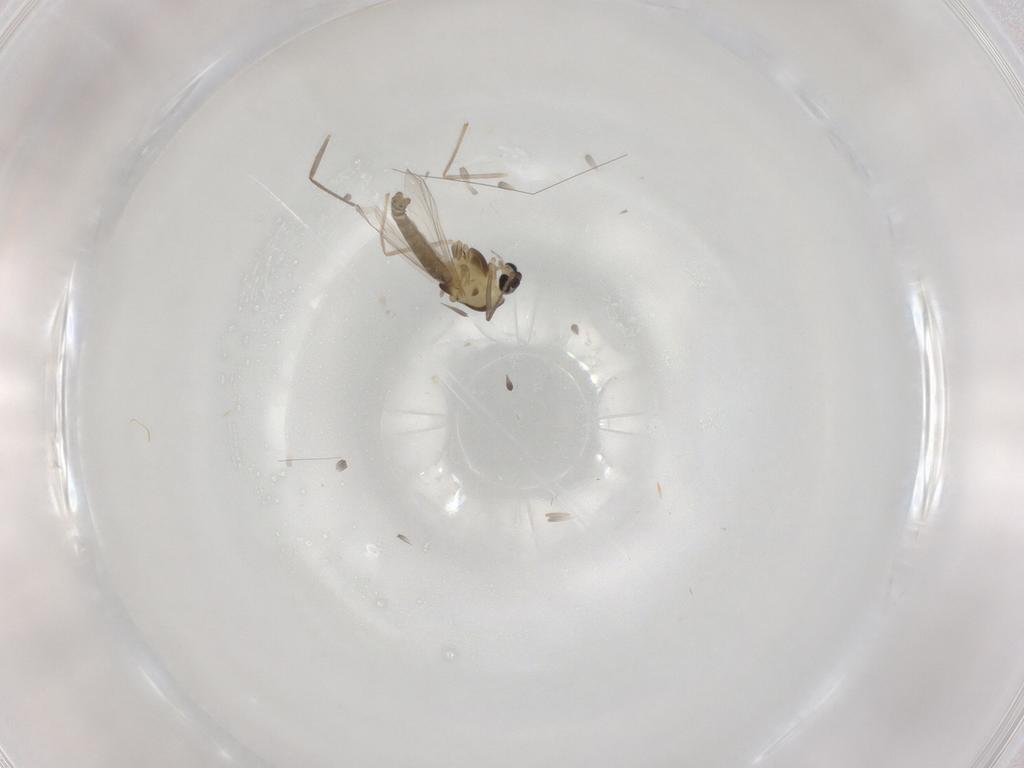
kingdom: Animalia
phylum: Arthropoda
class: Insecta
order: Diptera
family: Chironomidae
